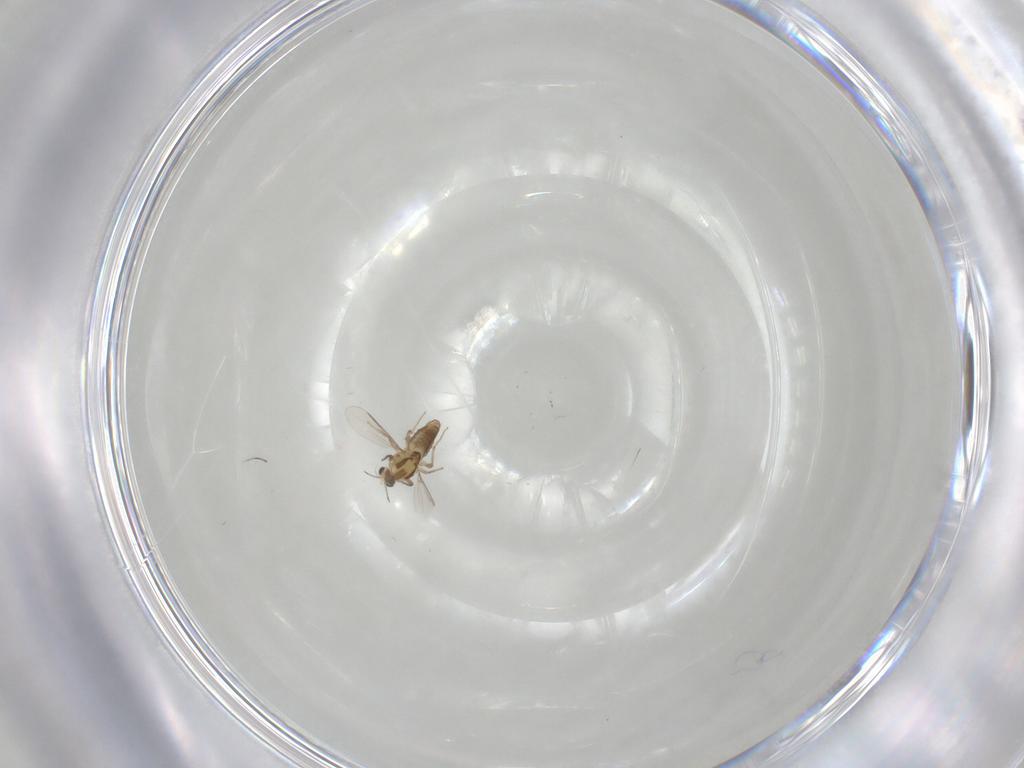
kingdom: Animalia
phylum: Arthropoda
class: Insecta
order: Diptera
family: Chironomidae
